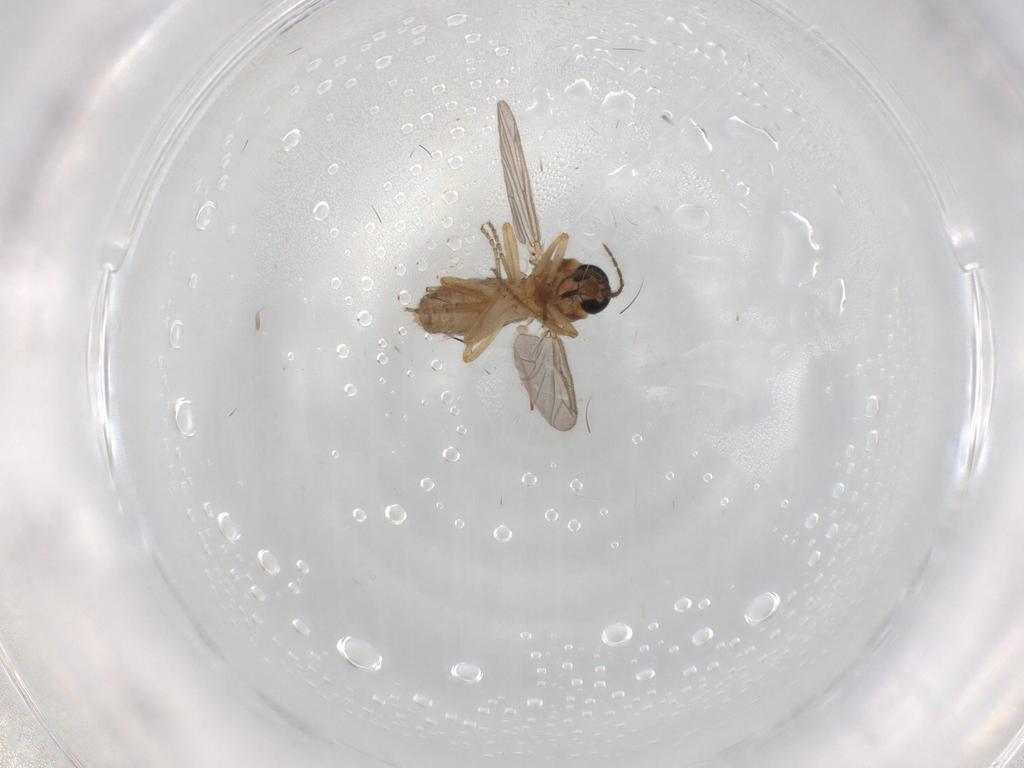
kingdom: Animalia
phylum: Arthropoda
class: Insecta
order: Diptera
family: Ceratopogonidae
